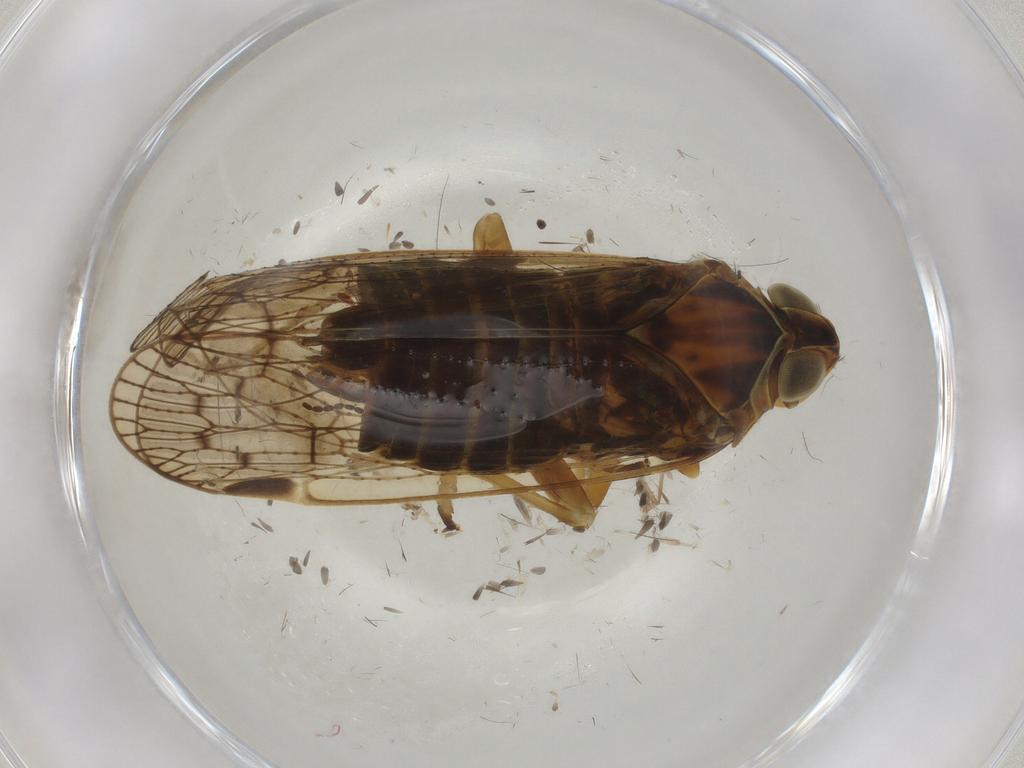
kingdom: Animalia
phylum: Arthropoda
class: Insecta
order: Hemiptera
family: Cixiidae
